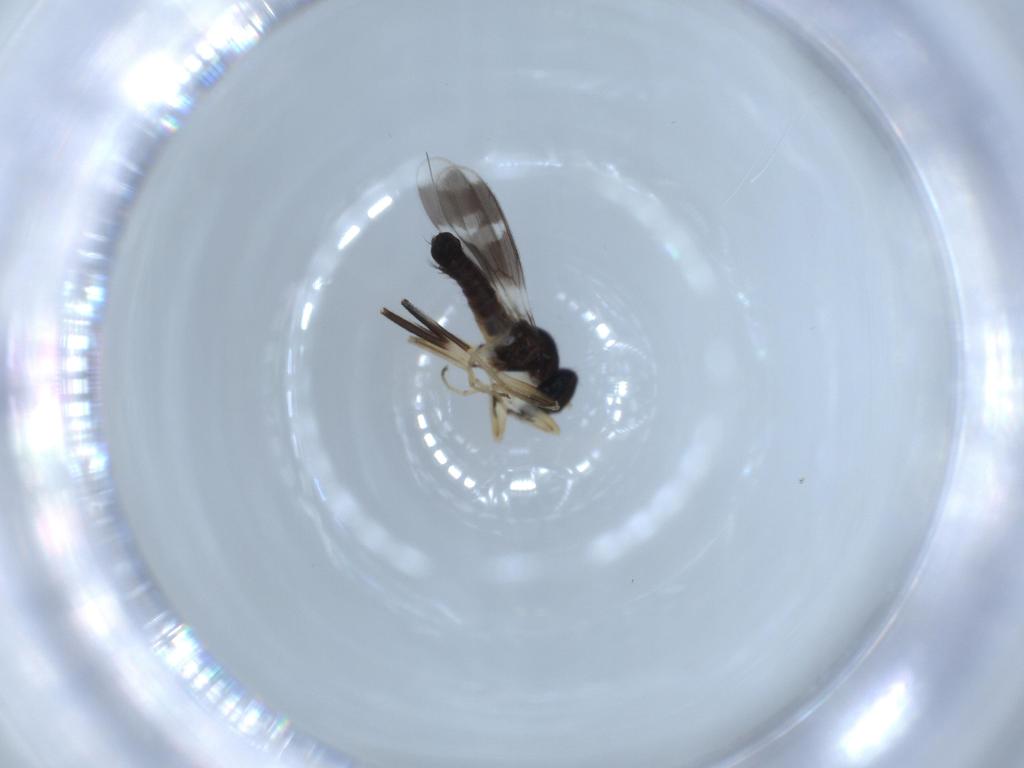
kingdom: Animalia
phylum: Arthropoda
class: Insecta
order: Diptera
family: Hybotidae
